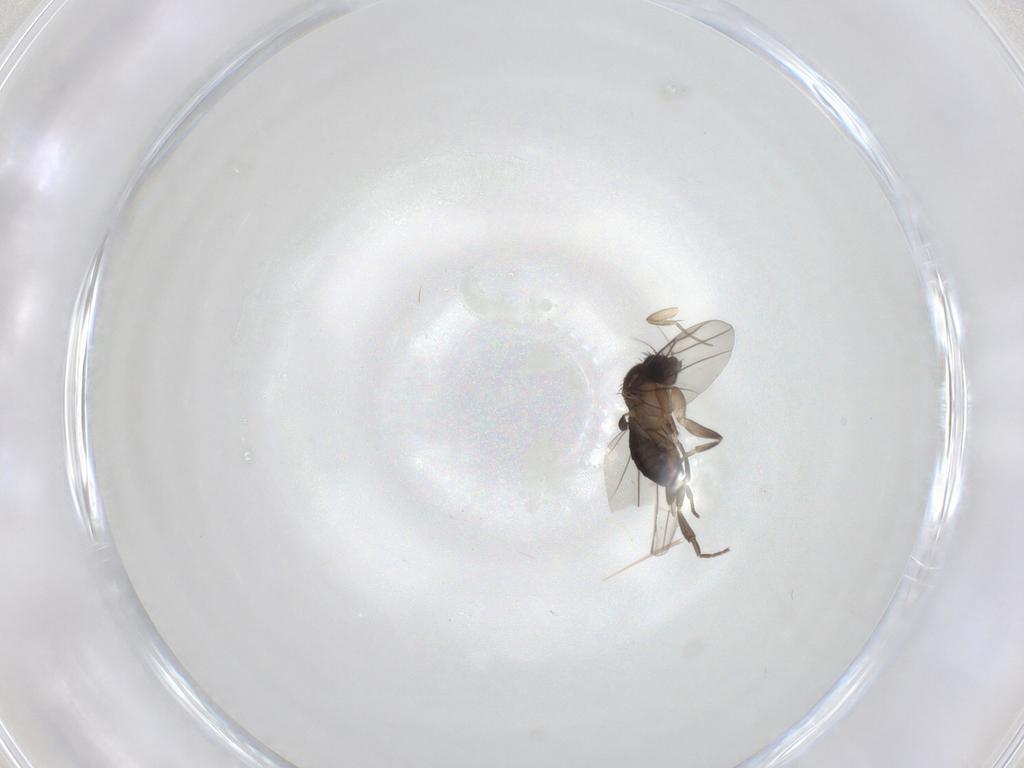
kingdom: Animalia
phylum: Arthropoda
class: Insecta
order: Diptera
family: Phoridae
